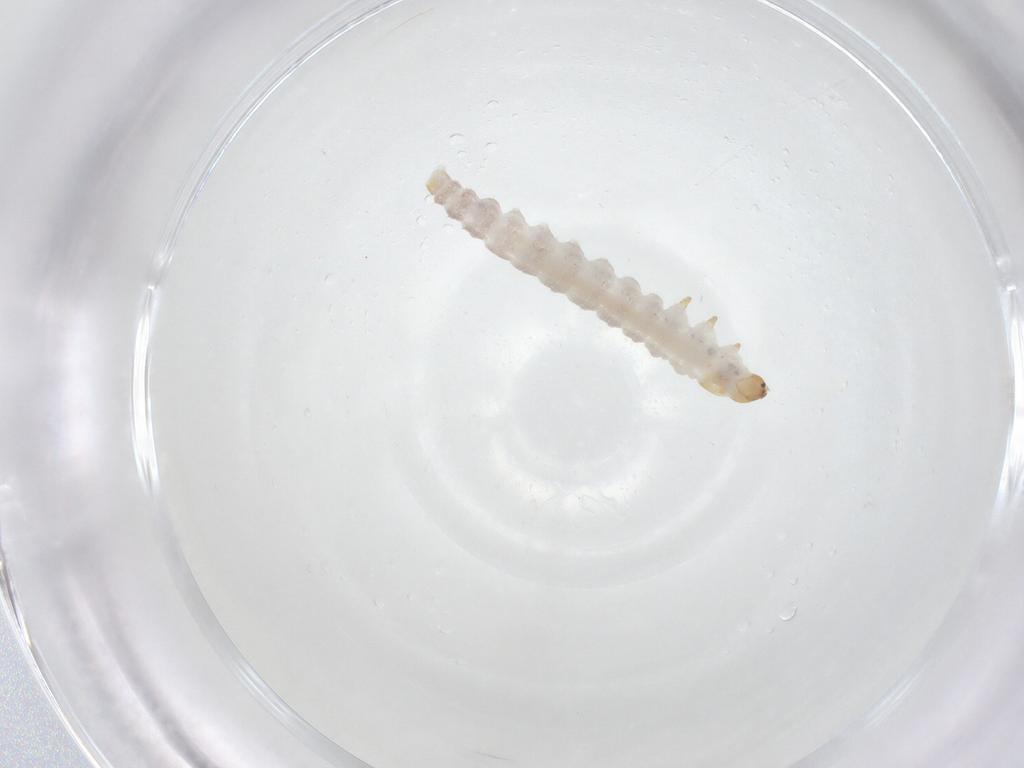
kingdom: Animalia
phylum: Arthropoda
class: Insecta
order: Lepidoptera
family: Momphidae
